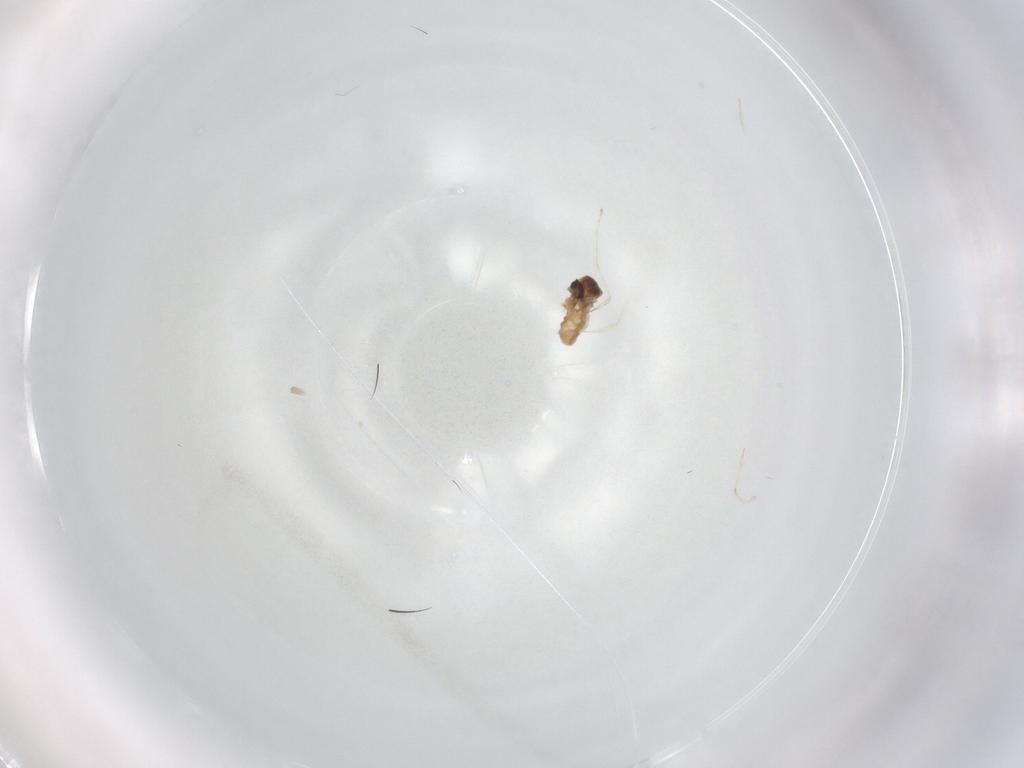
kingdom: Animalia
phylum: Arthropoda
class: Insecta
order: Diptera
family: Cecidomyiidae
